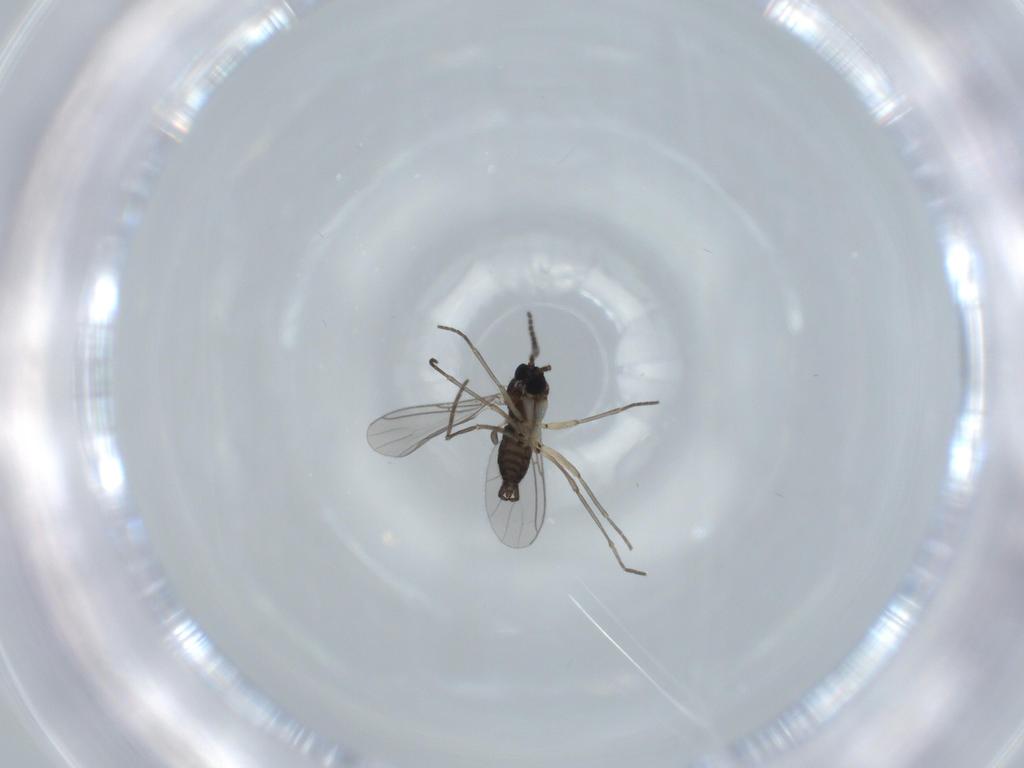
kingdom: Animalia
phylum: Arthropoda
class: Insecta
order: Diptera
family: Sciaridae
